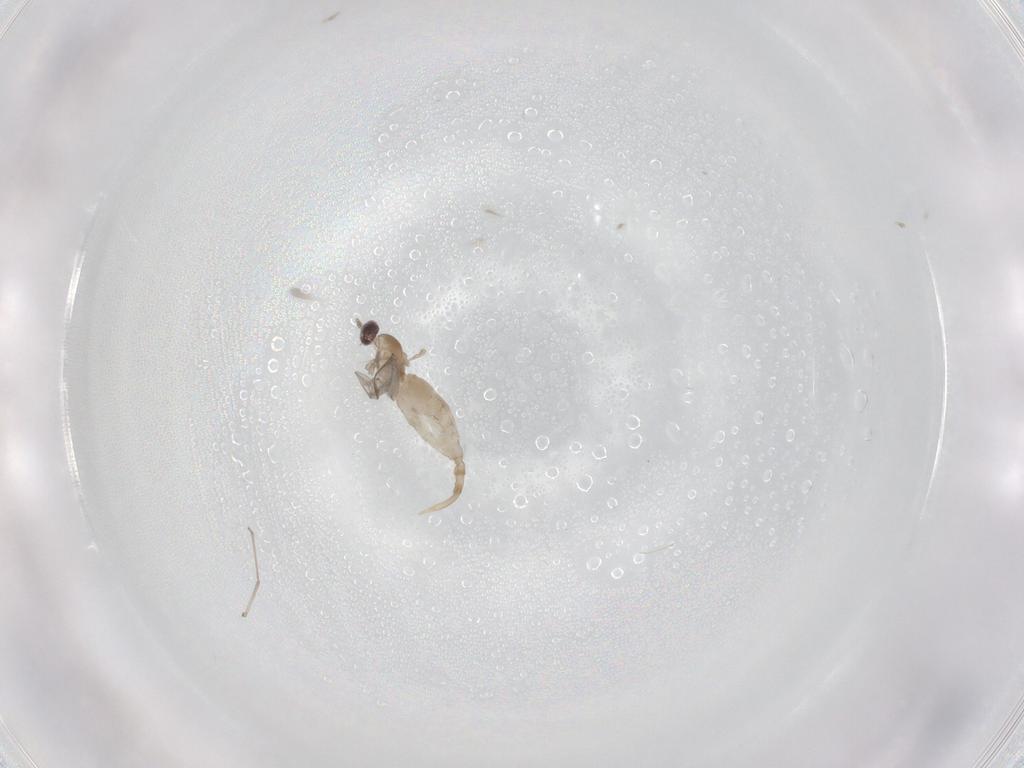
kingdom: Animalia
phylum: Arthropoda
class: Insecta
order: Diptera
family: Cecidomyiidae
